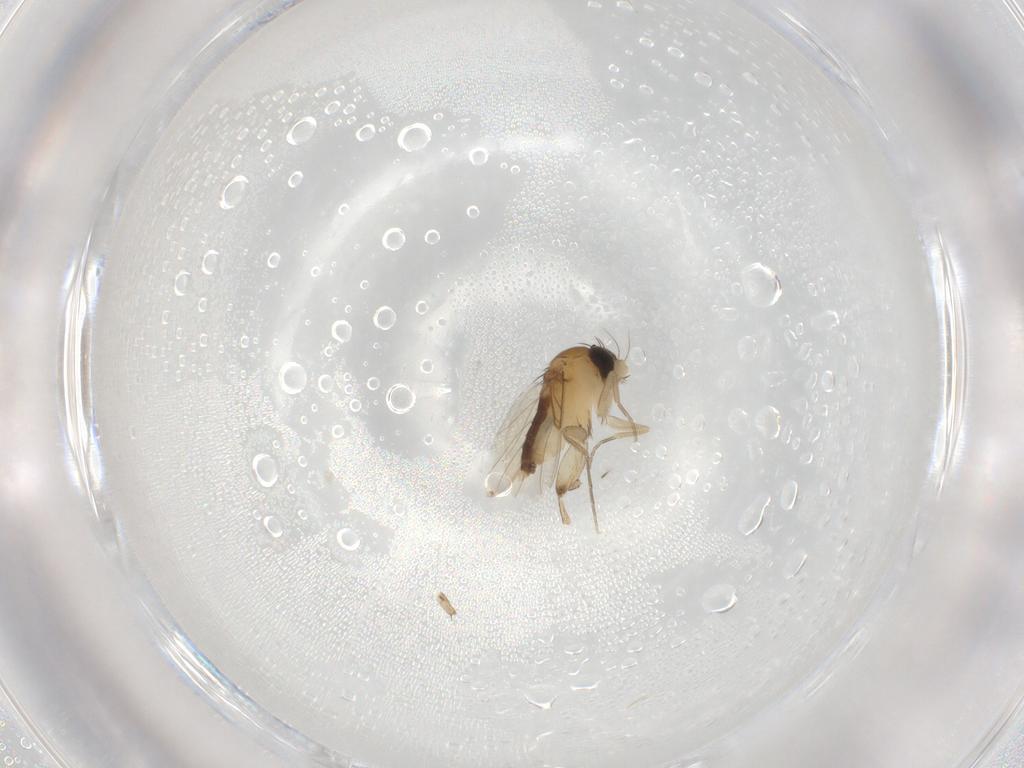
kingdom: Animalia
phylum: Arthropoda
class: Insecta
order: Diptera
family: Phoridae
